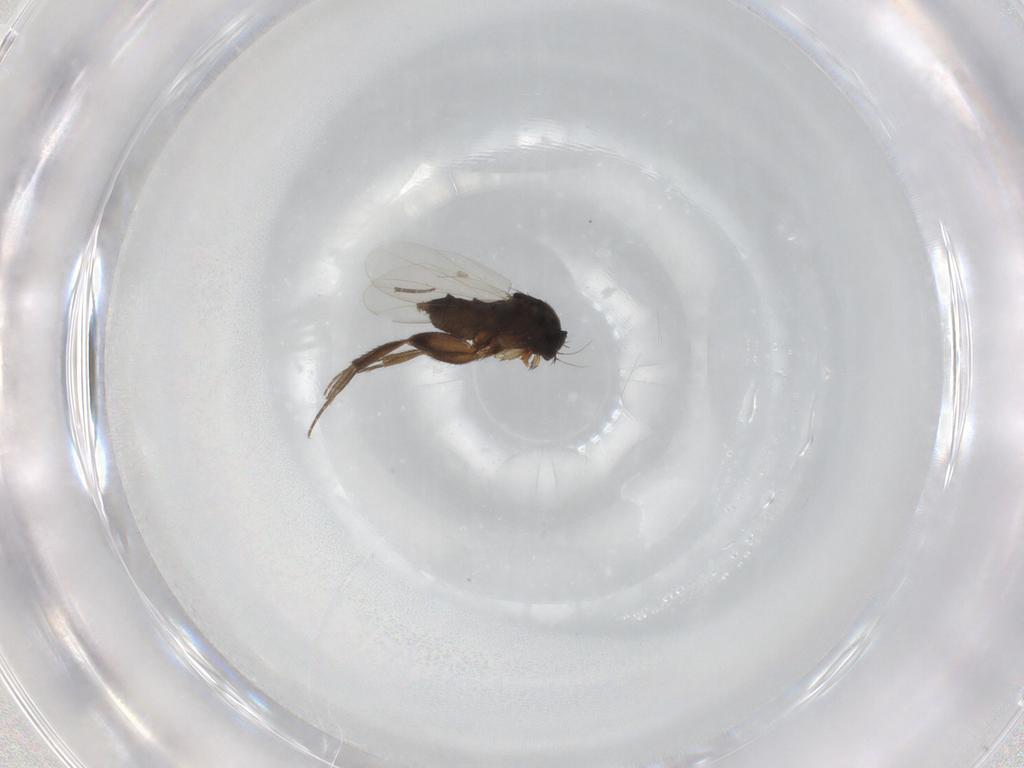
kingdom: Animalia
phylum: Arthropoda
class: Insecta
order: Diptera
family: Phoridae
